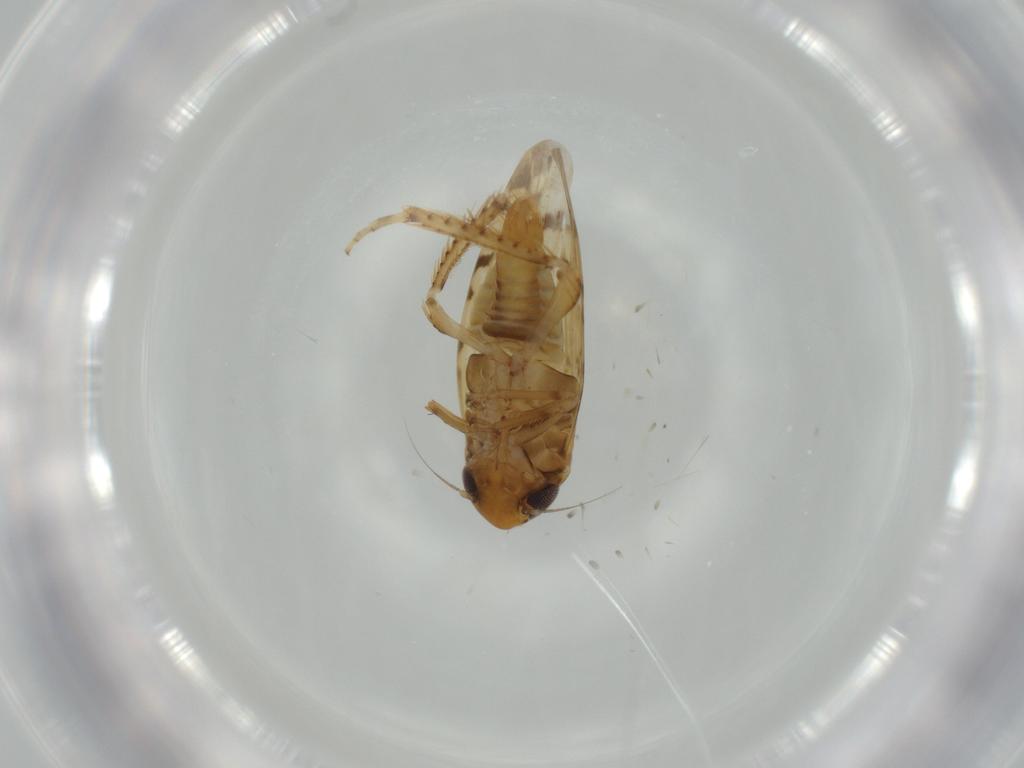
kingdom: Animalia
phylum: Arthropoda
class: Insecta
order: Hemiptera
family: Cicadellidae
